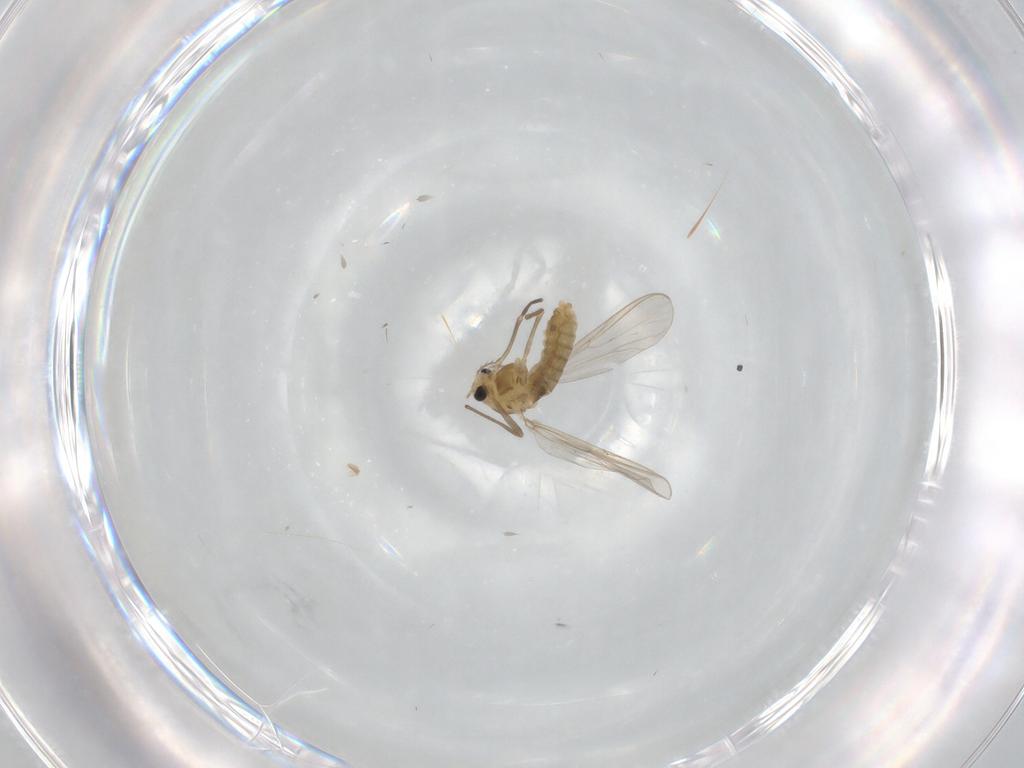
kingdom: Animalia
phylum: Arthropoda
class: Insecta
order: Diptera
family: Chironomidae
